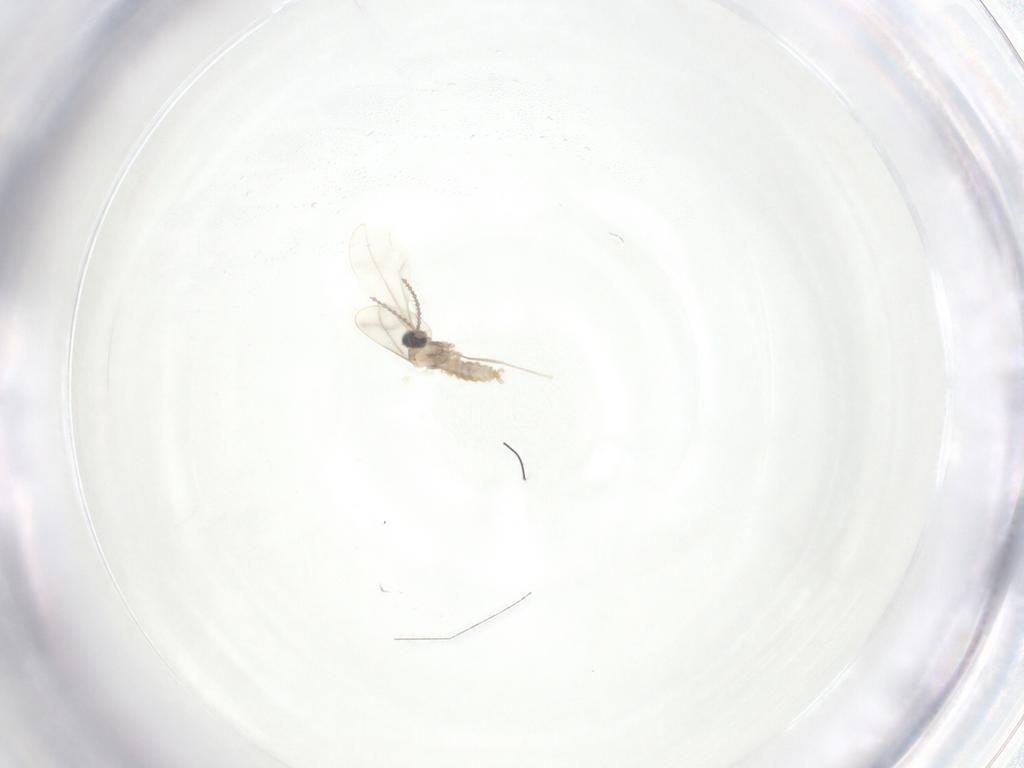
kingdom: Animalia
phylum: Arthropoda
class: Insecta
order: Diptera
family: Psychodidae
